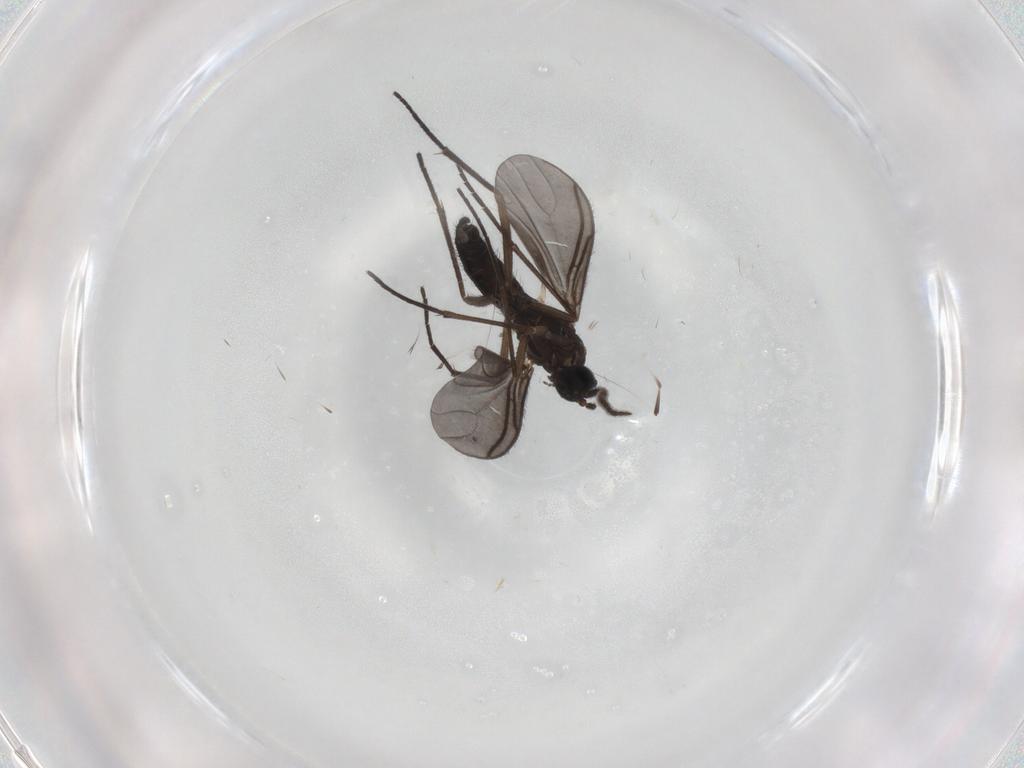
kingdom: Animalia
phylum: Arthropoda
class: Insecta
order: Diptera
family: Sciaridae
